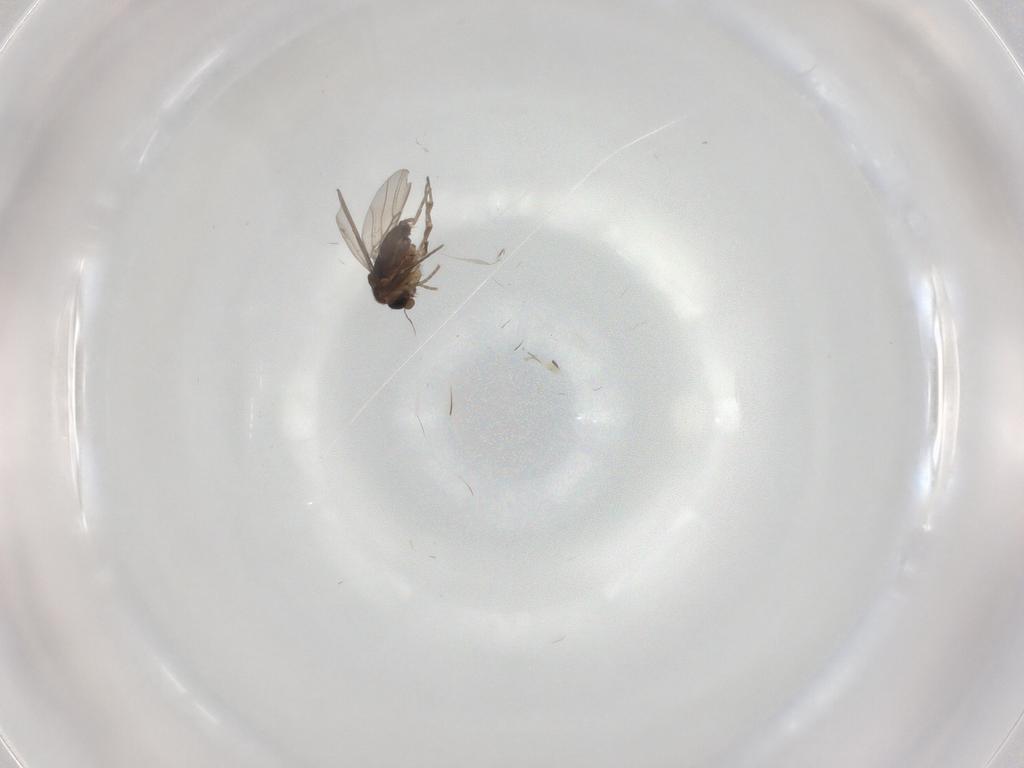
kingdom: Animalia
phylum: Arthropoda
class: Insecta
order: Diptera
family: Phoridae
